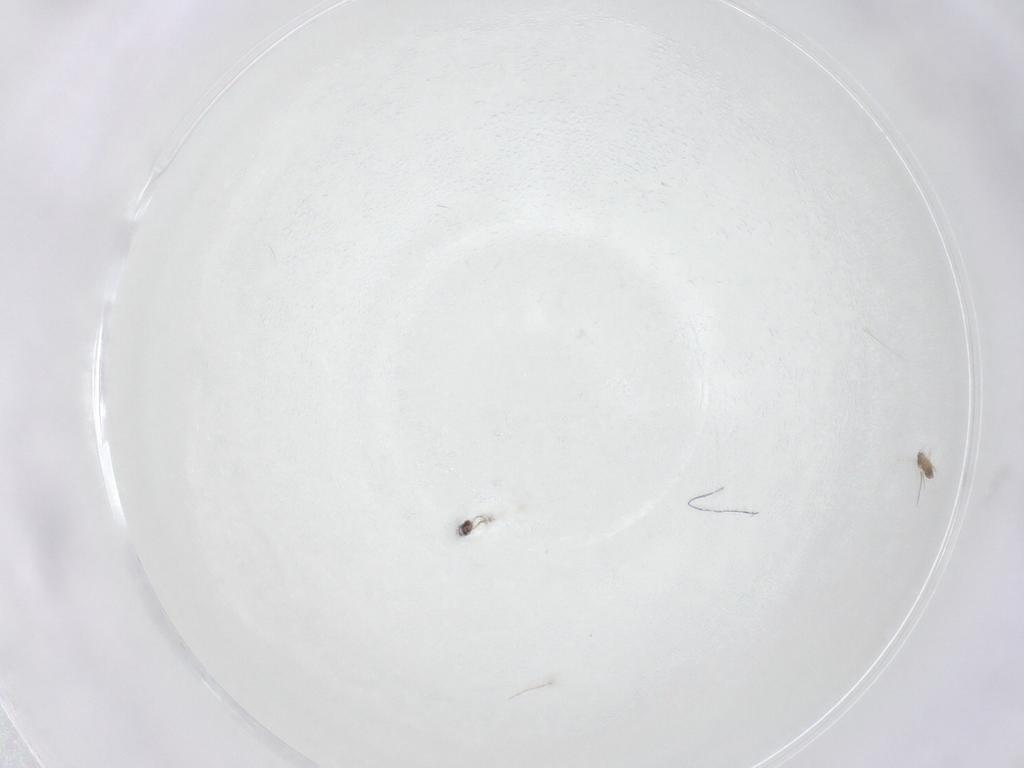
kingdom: Animalia
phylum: Arthropoda
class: Insecta
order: Hymenoptera
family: Mymaridae
